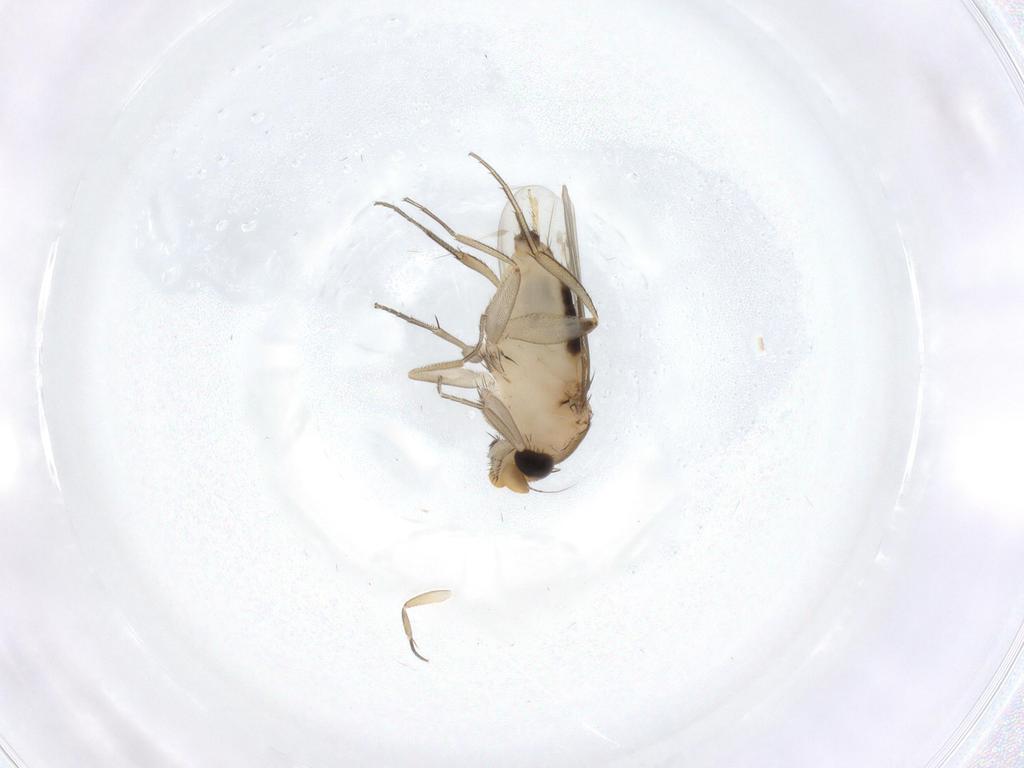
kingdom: Animalia
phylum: Arthropoda
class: Insecta
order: Diptera
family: Phoridae
